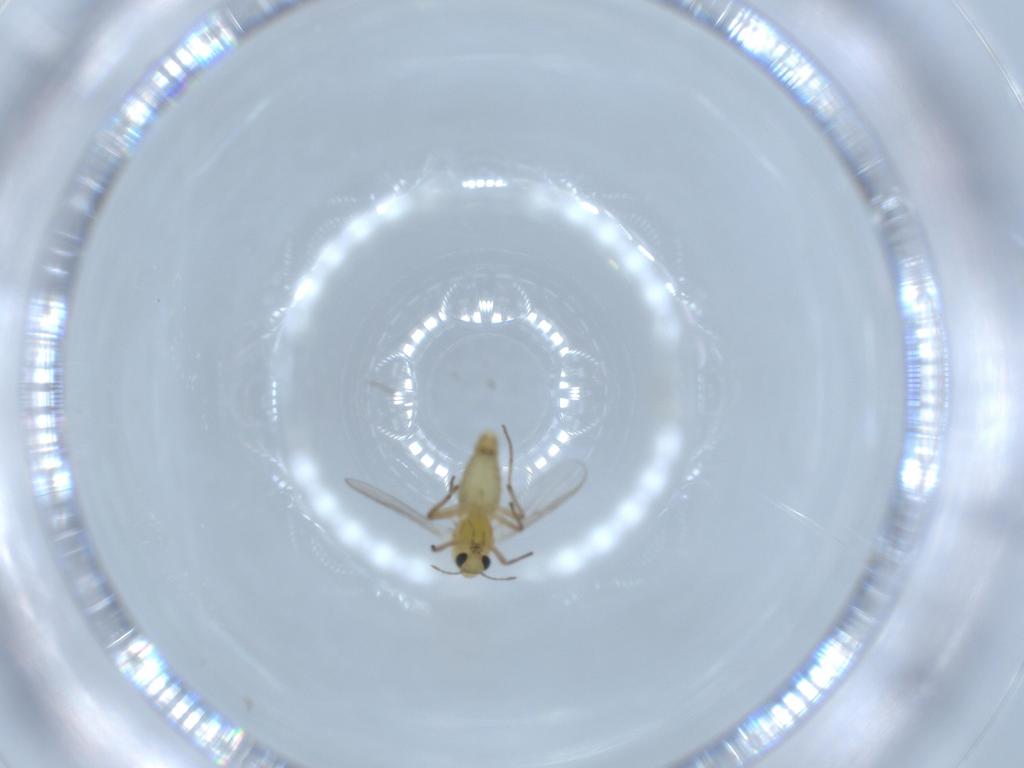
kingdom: Animalia
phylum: Arthropoda
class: Insecta
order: Diptera
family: Chironomidae
